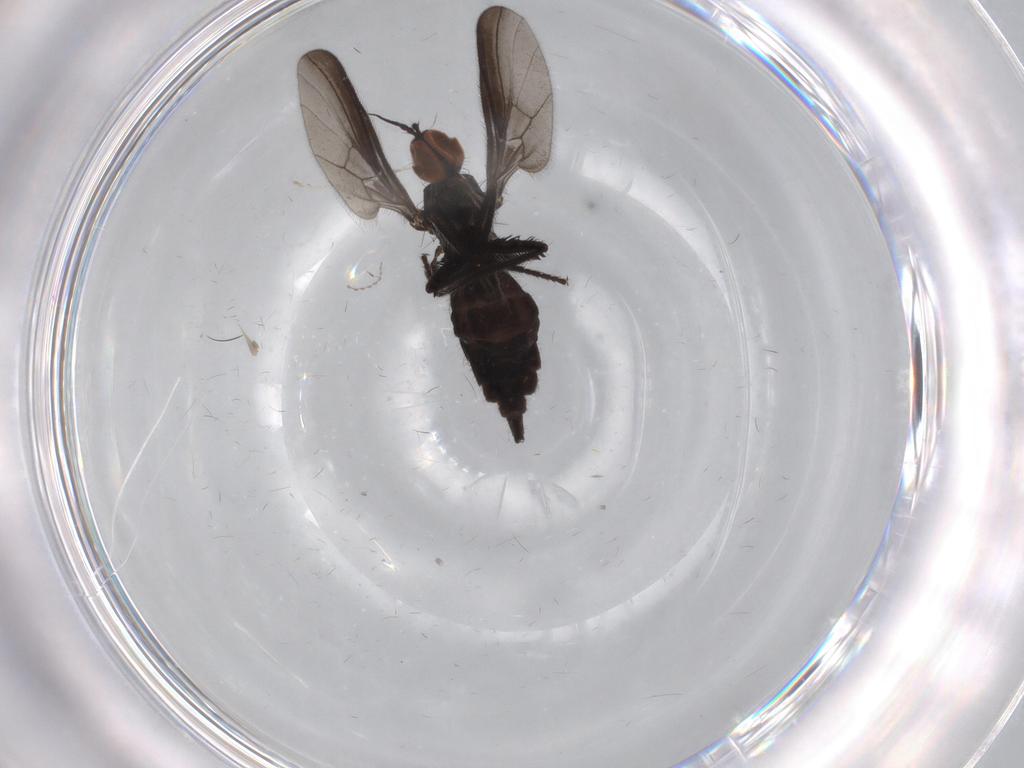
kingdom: Animalia
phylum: Arthropoda
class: Insecta
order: Diptera
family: Empididae
